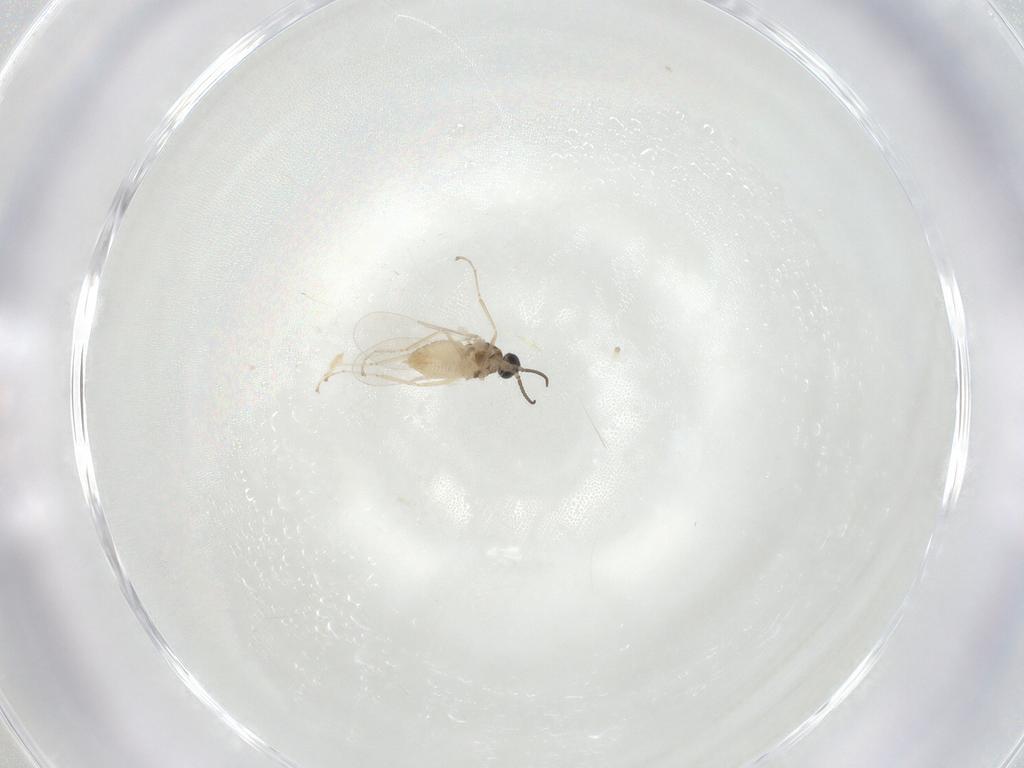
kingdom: Animalia
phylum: Arthropoda
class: Insecta
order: Diptera
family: Cecidomyiidae
